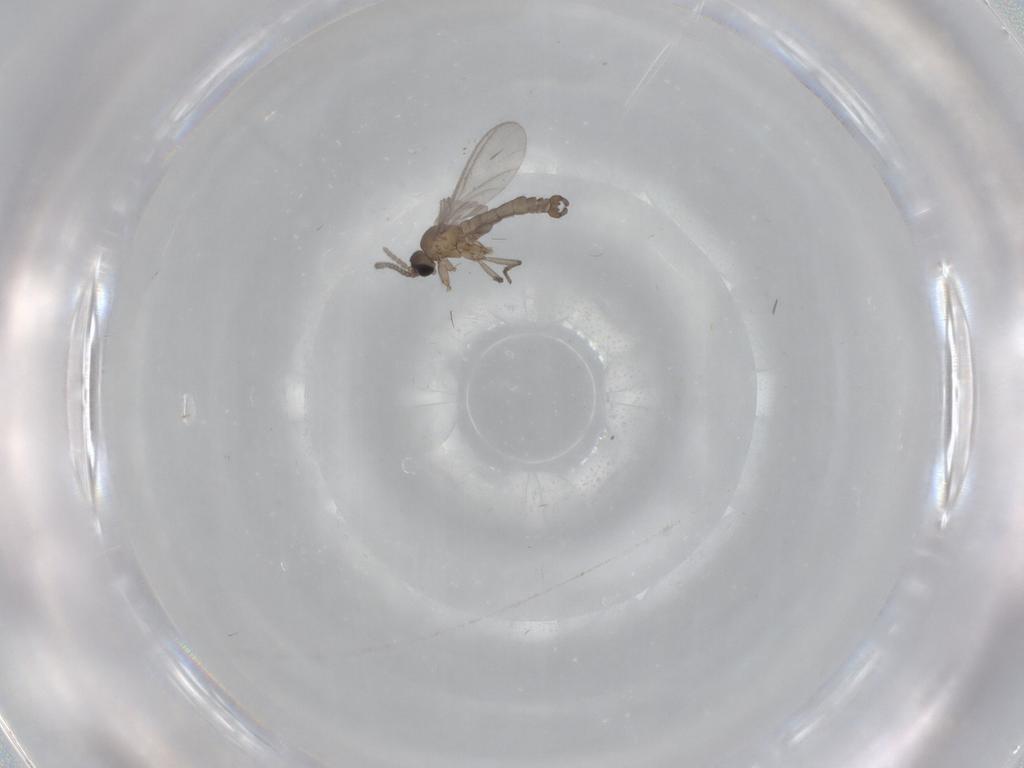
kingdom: Animalia
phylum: Arthropoda
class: Insecta
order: Diptera
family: Sciaridae
